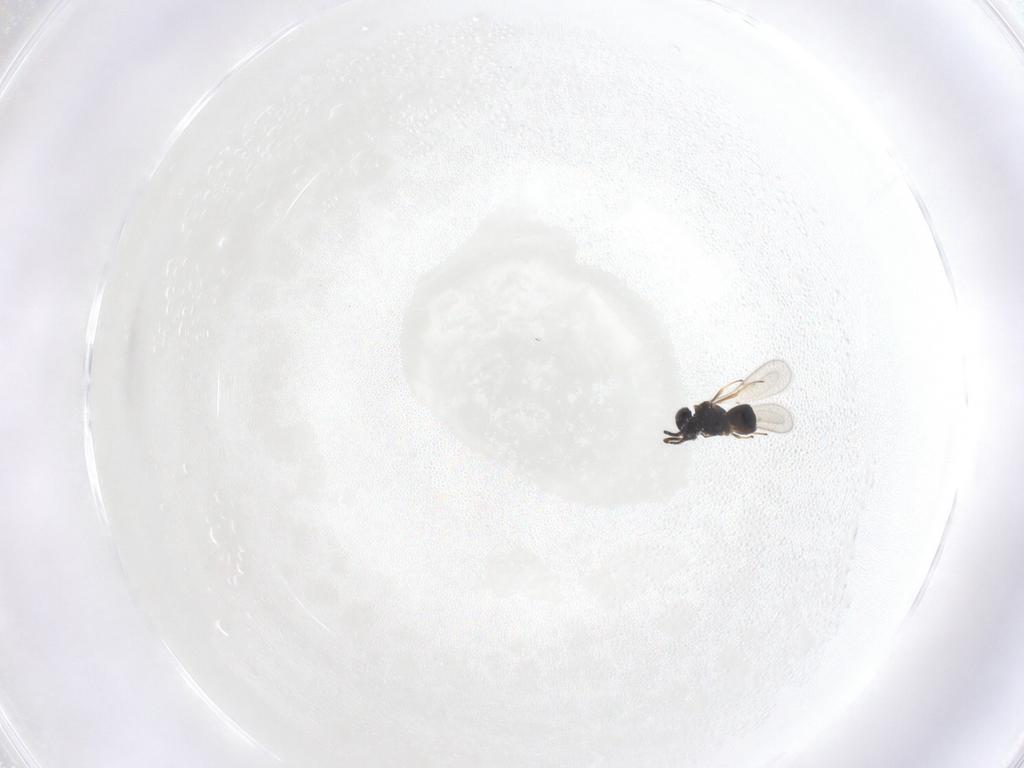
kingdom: Animalia
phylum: Arthropoda
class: Insecta
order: Hymenoptera
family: Scelionidae
